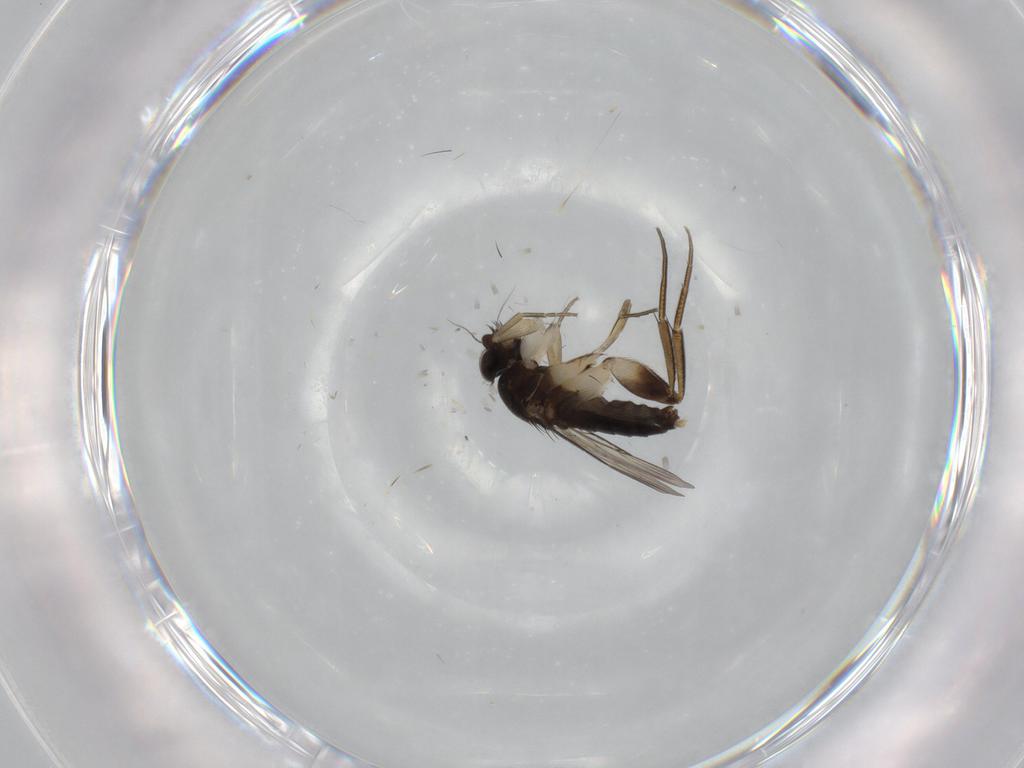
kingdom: Animalia
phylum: Arthropoda
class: Insecta
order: Diptera
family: Phoridae
